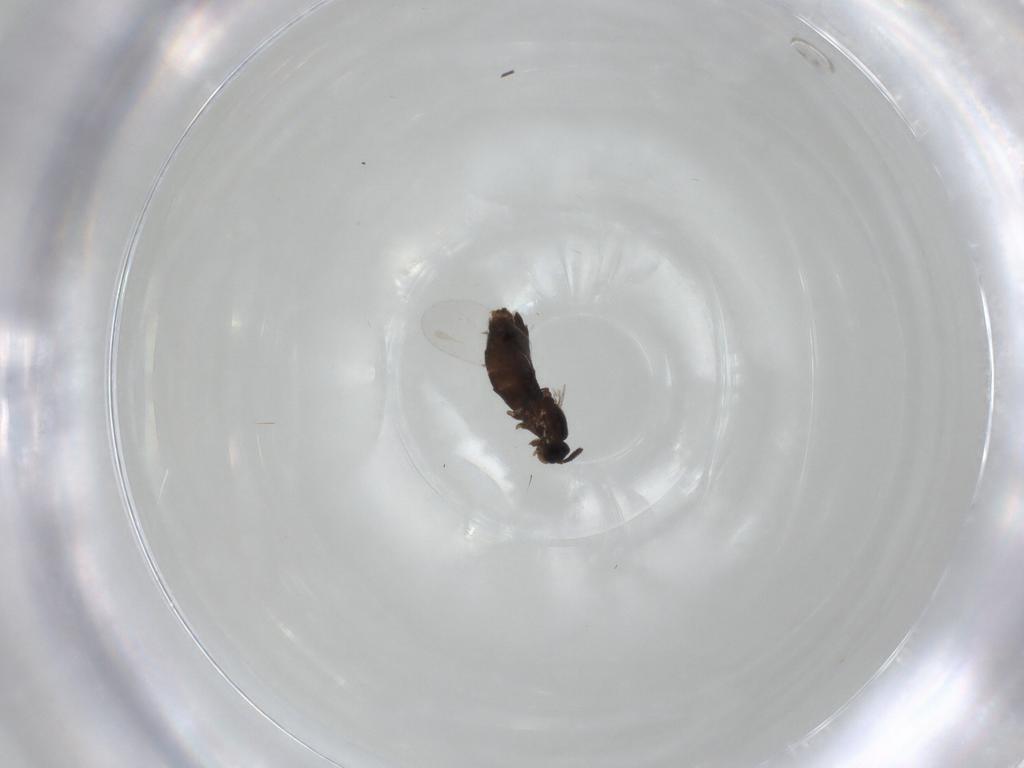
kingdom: Animalia
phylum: Arthropoda
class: Insecta
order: Diptera
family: Scatopsidae
